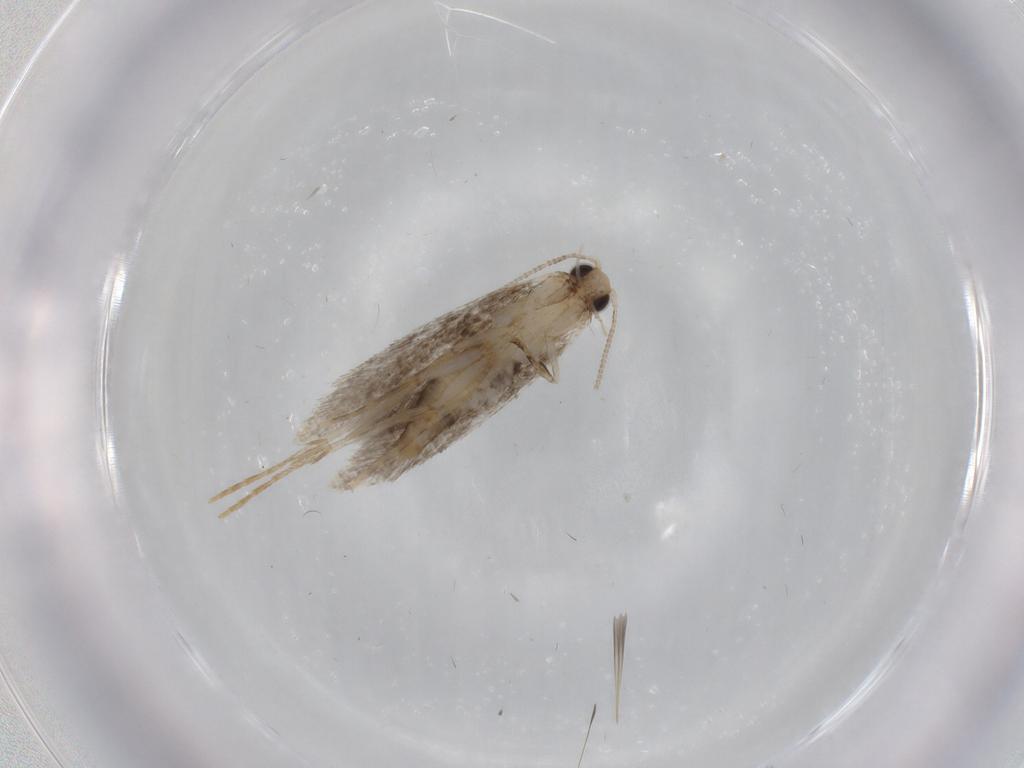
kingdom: Animalia
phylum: Arthropoda
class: Insecta
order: Lepidoptera
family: Tineidae
